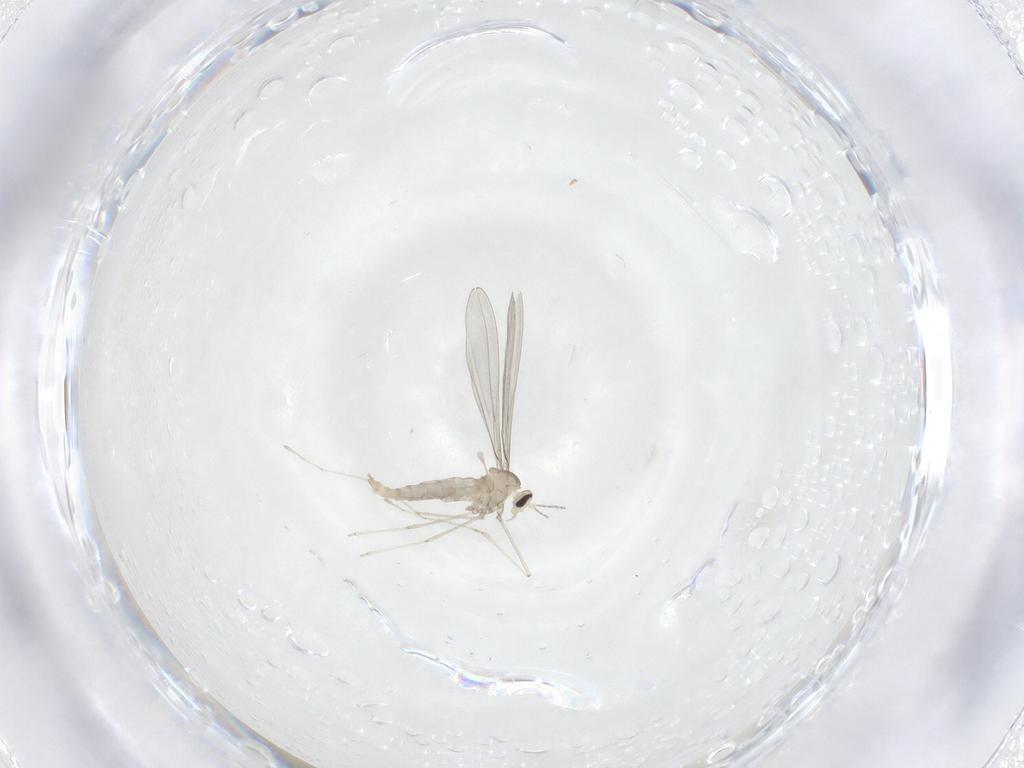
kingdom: Animalia
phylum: Arthropoda
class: Insecta
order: Diptera
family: Cecidomyiidae
